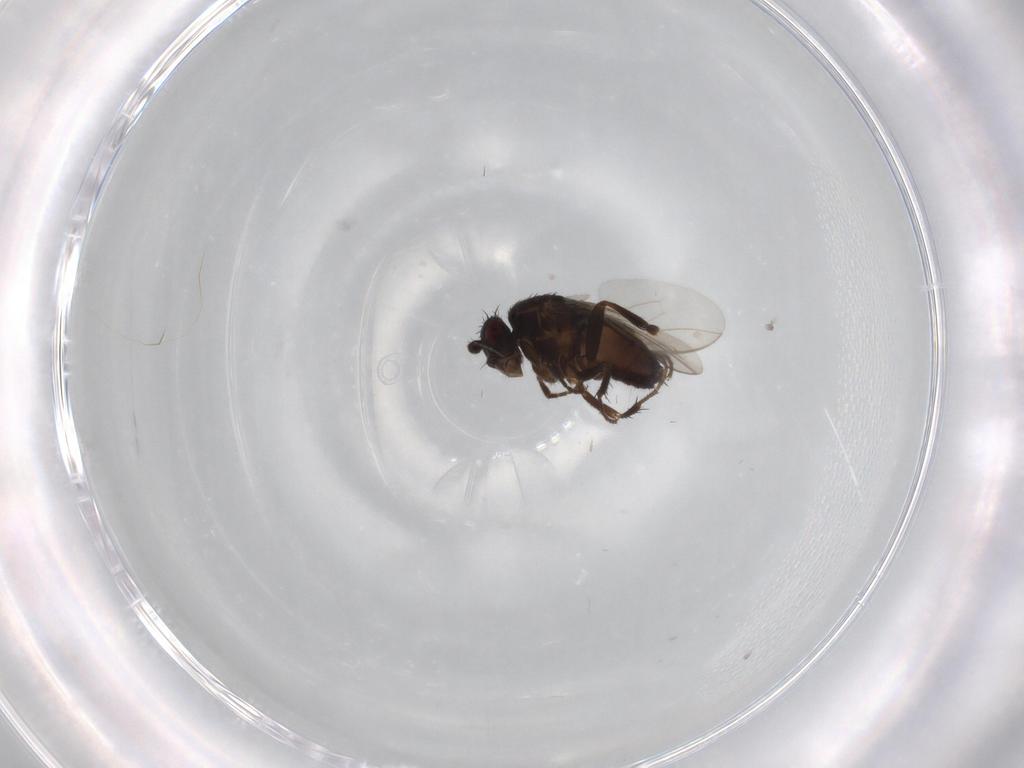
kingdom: Animalia
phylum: Arthropoda
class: Insecta
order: Diptera
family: Sphaeroceridae
